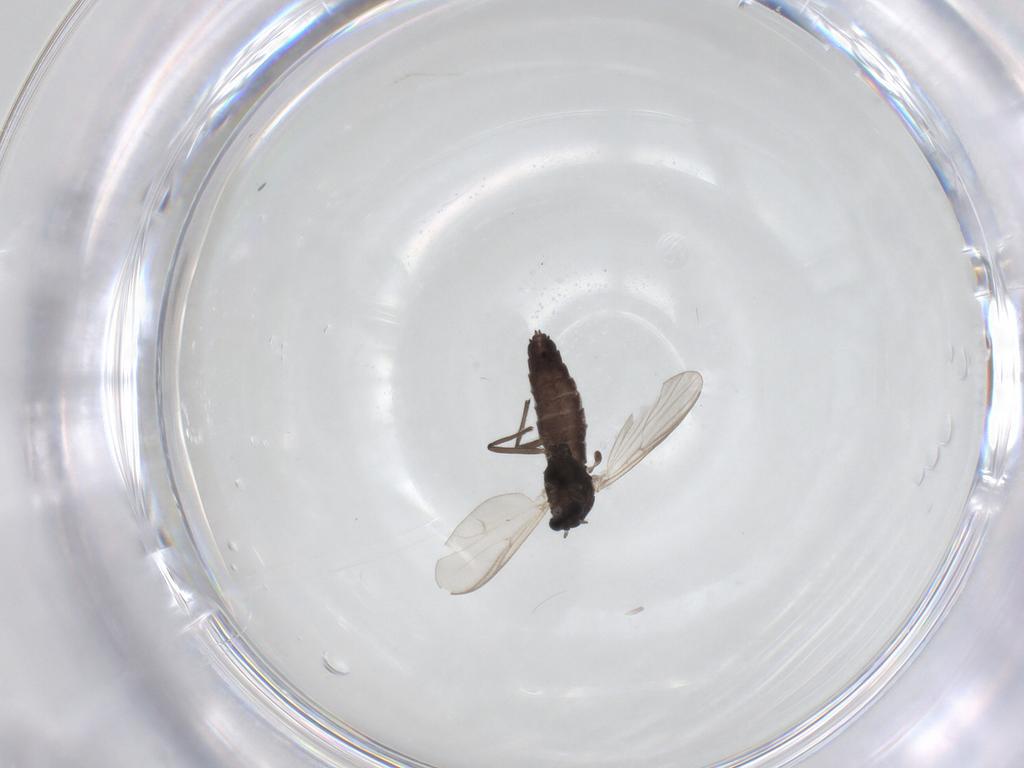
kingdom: Animalia
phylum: Arthropoda
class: Insecta
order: Diptera
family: Chironomidae
